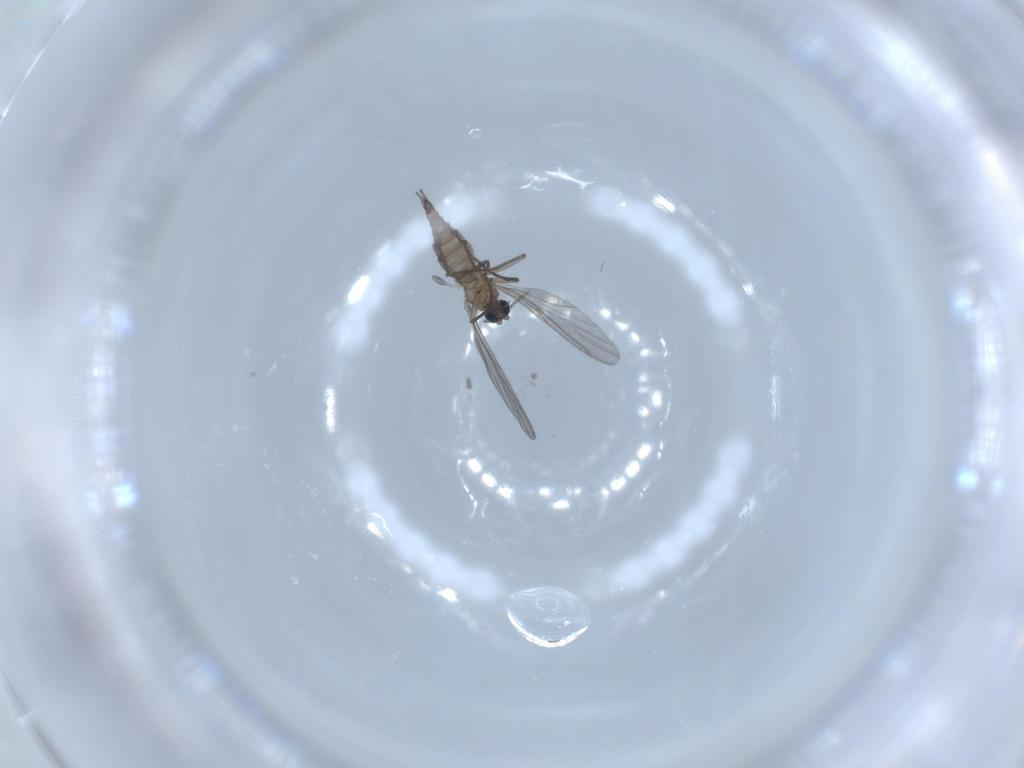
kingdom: Animalia
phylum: Arthropoda
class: Insecta
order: Diptera
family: Sciaridae
